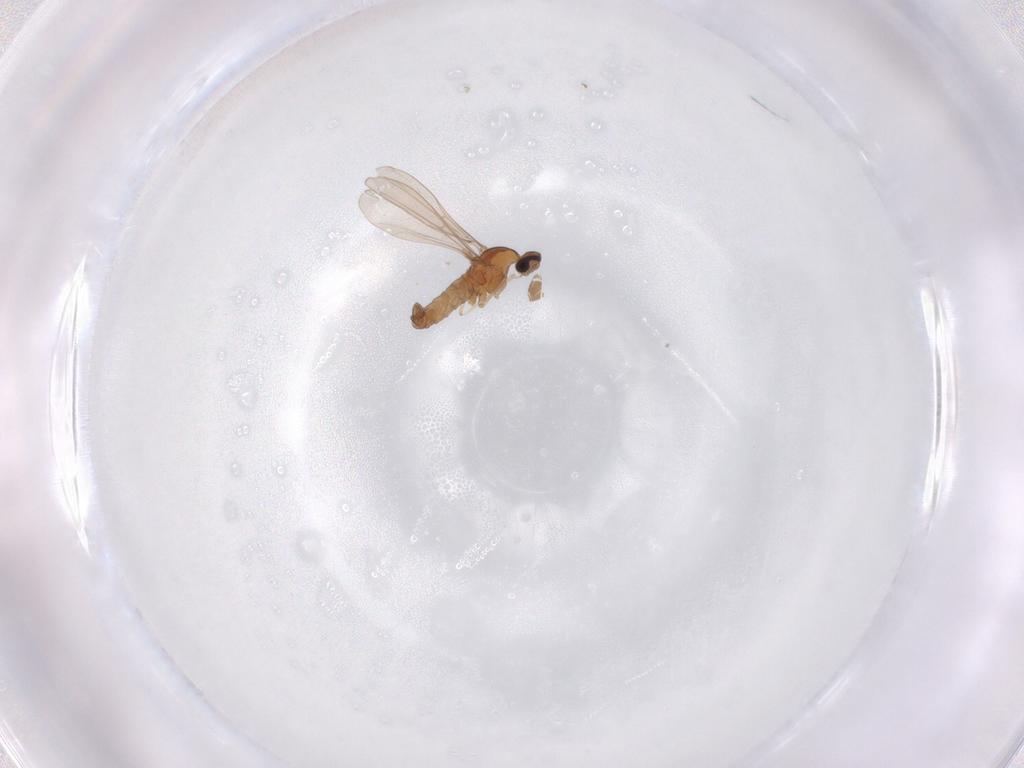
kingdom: Animalia
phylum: Arthropoda
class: Insecta
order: Diptera
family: Cecidomyiidae
